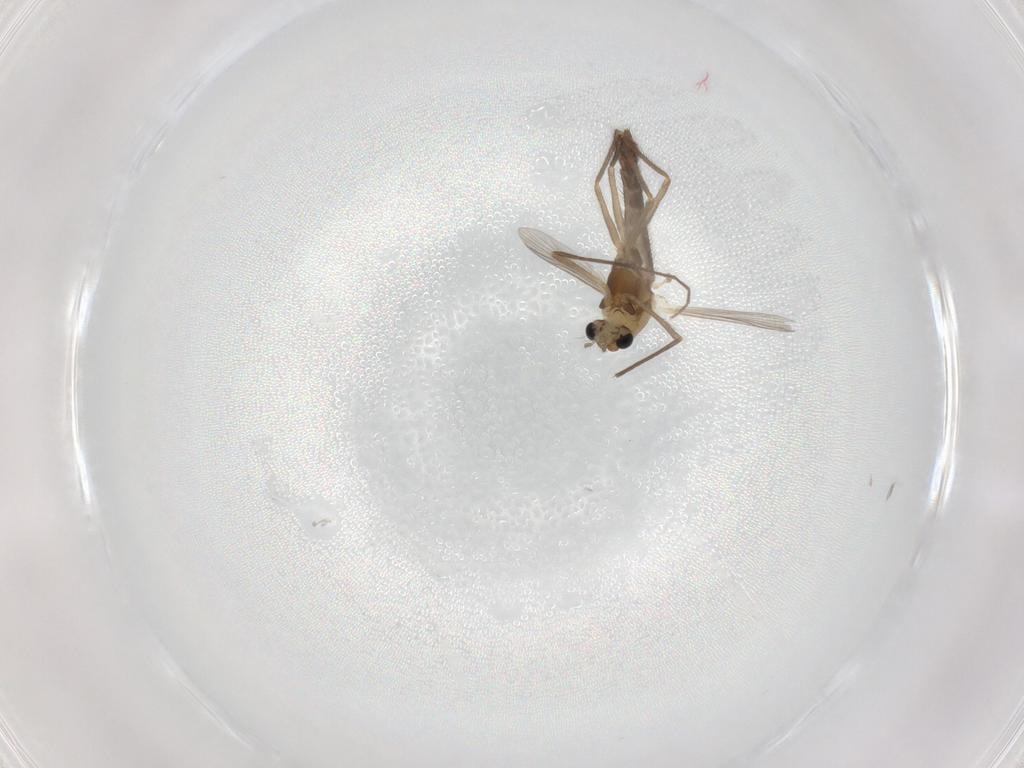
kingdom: Animalia
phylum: Arthropoda
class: Insecta
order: Diptera
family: Chironomidae
